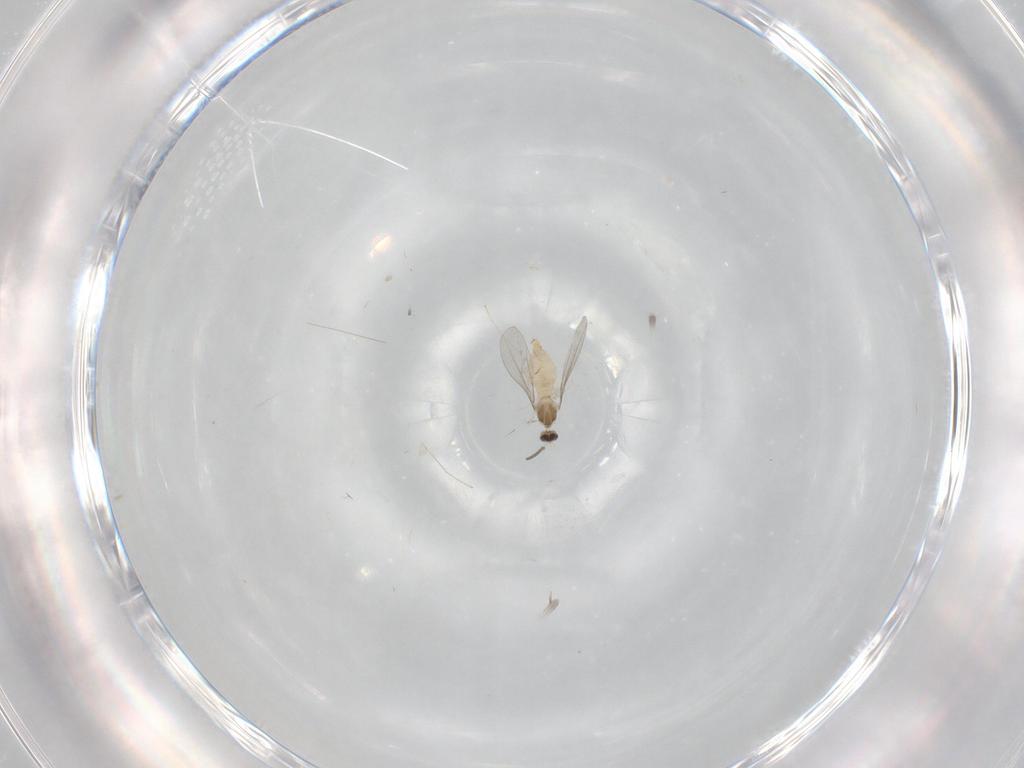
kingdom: Animalia
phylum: Arthropoda
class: Insecta
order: Diptera
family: Cecidomyiidae
